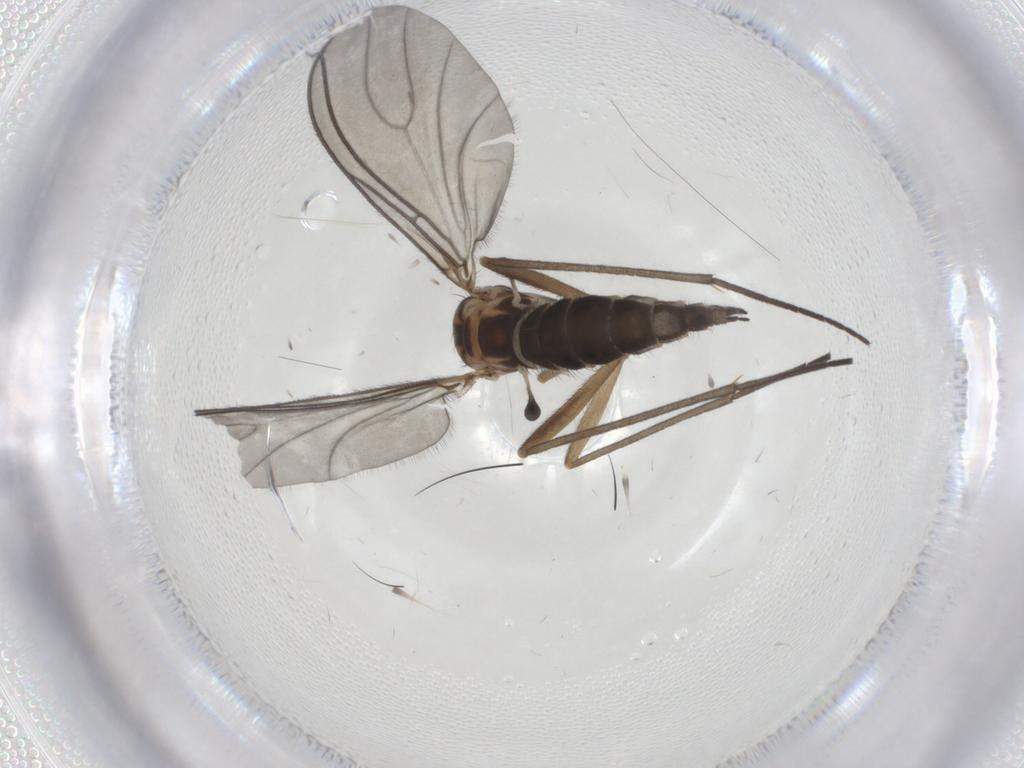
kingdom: Animalia
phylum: Arthropoda
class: Insecta
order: Diptera
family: Sciaridae
